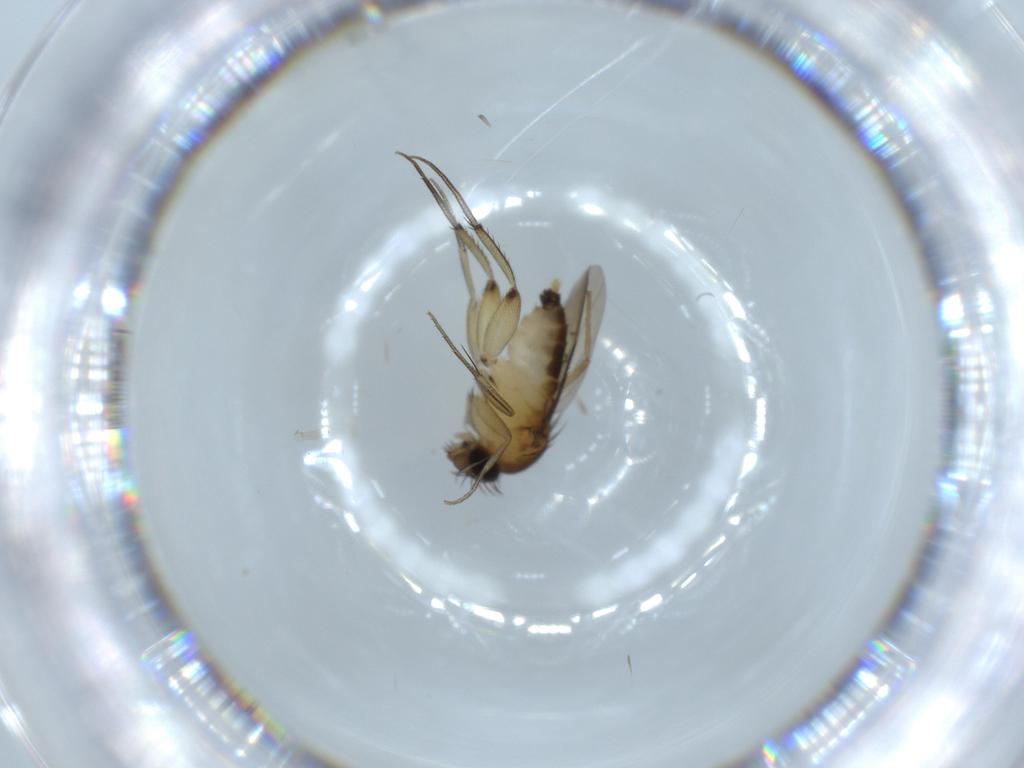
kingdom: Animalia
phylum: Arthropoda
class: Insecta
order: Diptera
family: Phoridae
